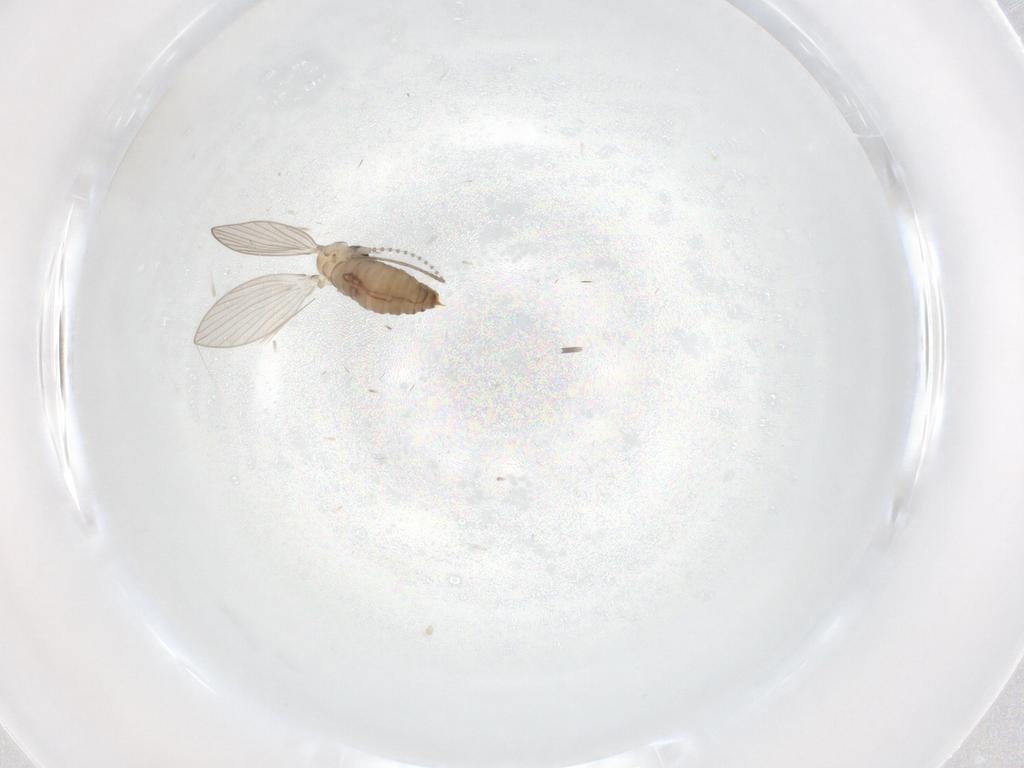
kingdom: Animalia
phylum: Arthropoda
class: Insecta
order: Diptera
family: Psychodidae
